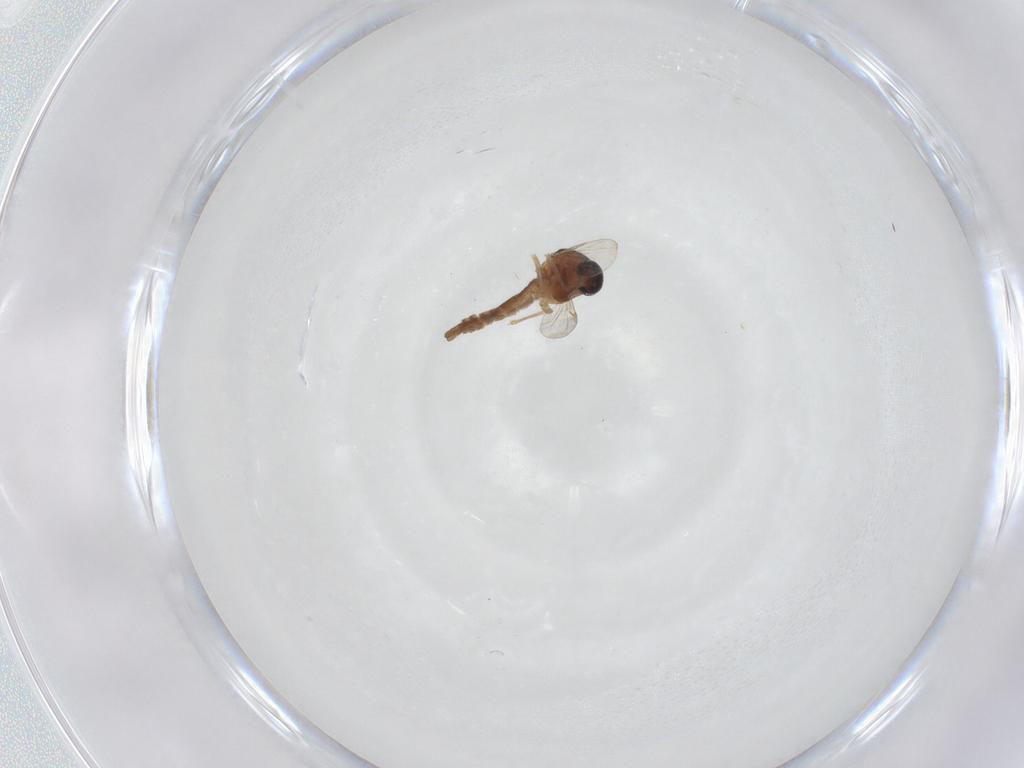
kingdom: Animalia
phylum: Arthropoda
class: Insecta
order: Diptera
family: Ceratopogonidae
